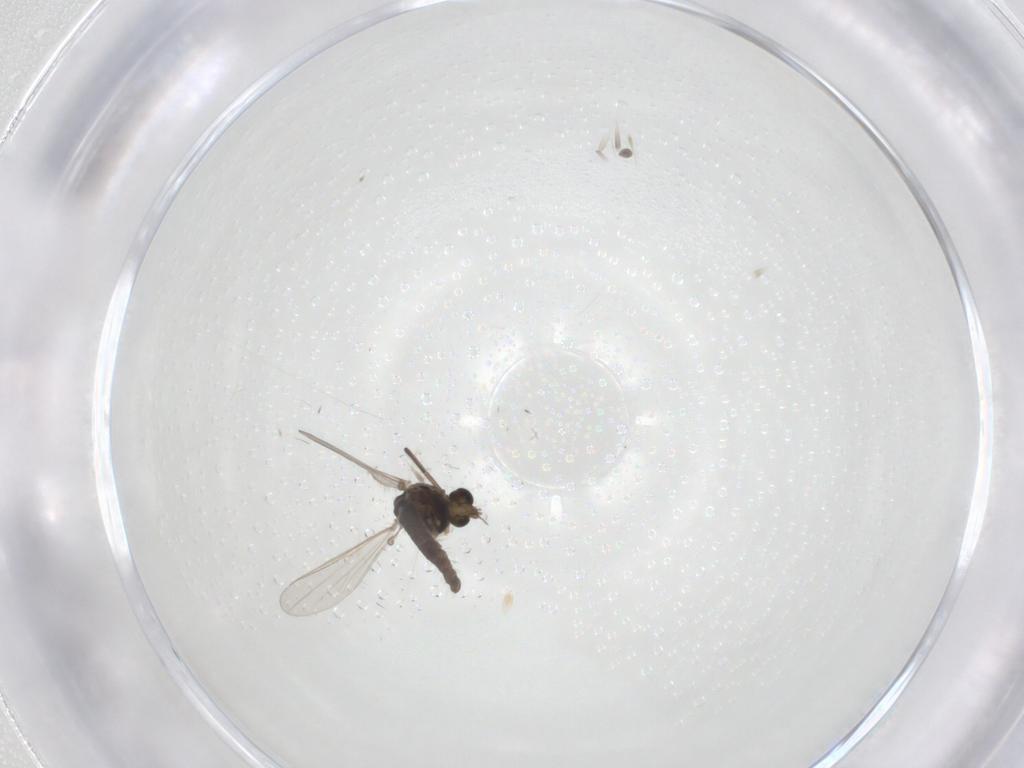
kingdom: Animalia
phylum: Arthropoda
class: Insecta
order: Diptera
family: Chironomidae
